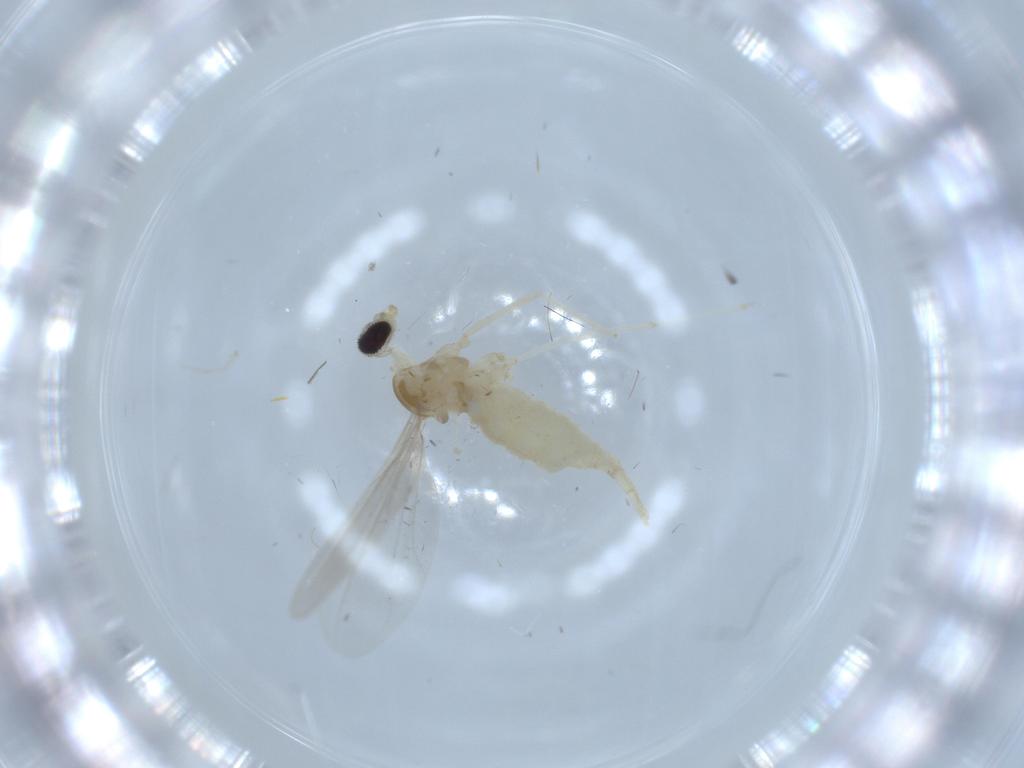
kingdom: Animalia
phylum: Arthropoda
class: Insecta
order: Diptera
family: Cecidomyiidae
